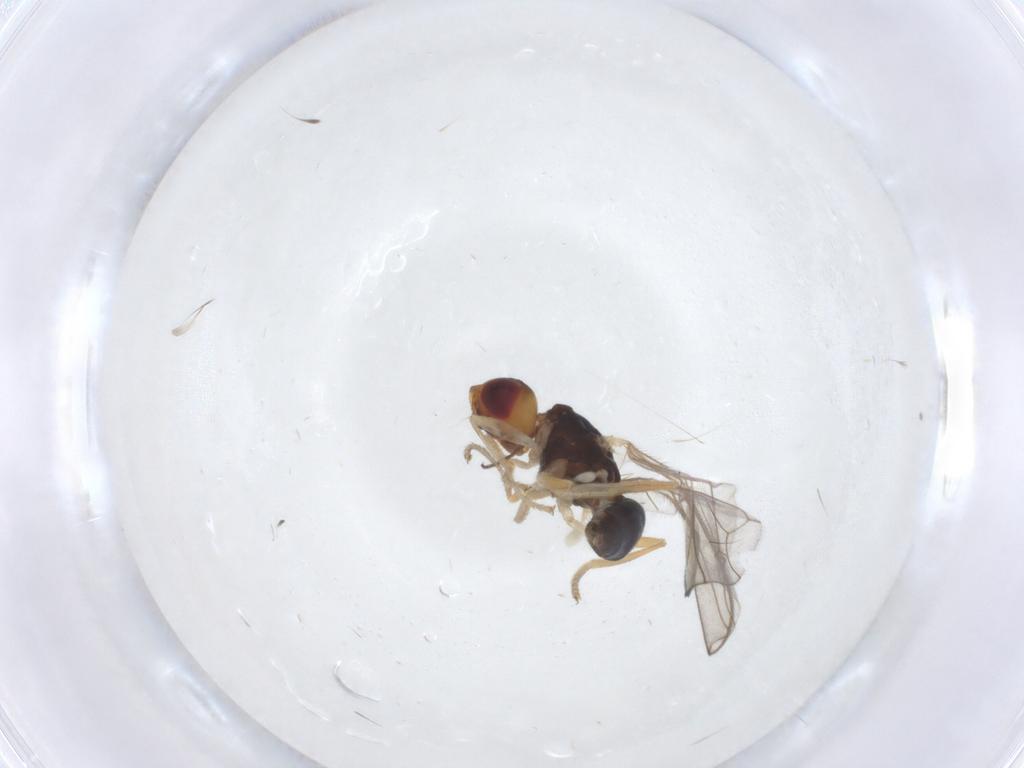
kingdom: Animalia
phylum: Arthropoda
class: Insecta
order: Diptera
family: Chironomidae
